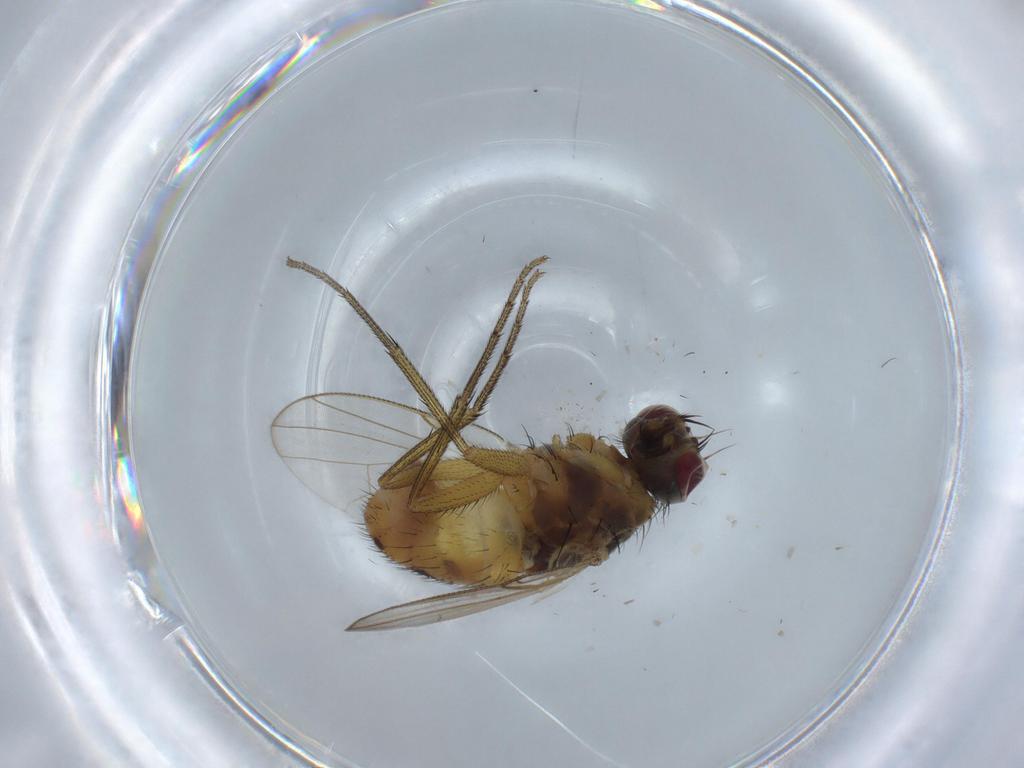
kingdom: Animalia
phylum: Arthropoda
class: Insecta
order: Diptera
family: Muscidae
